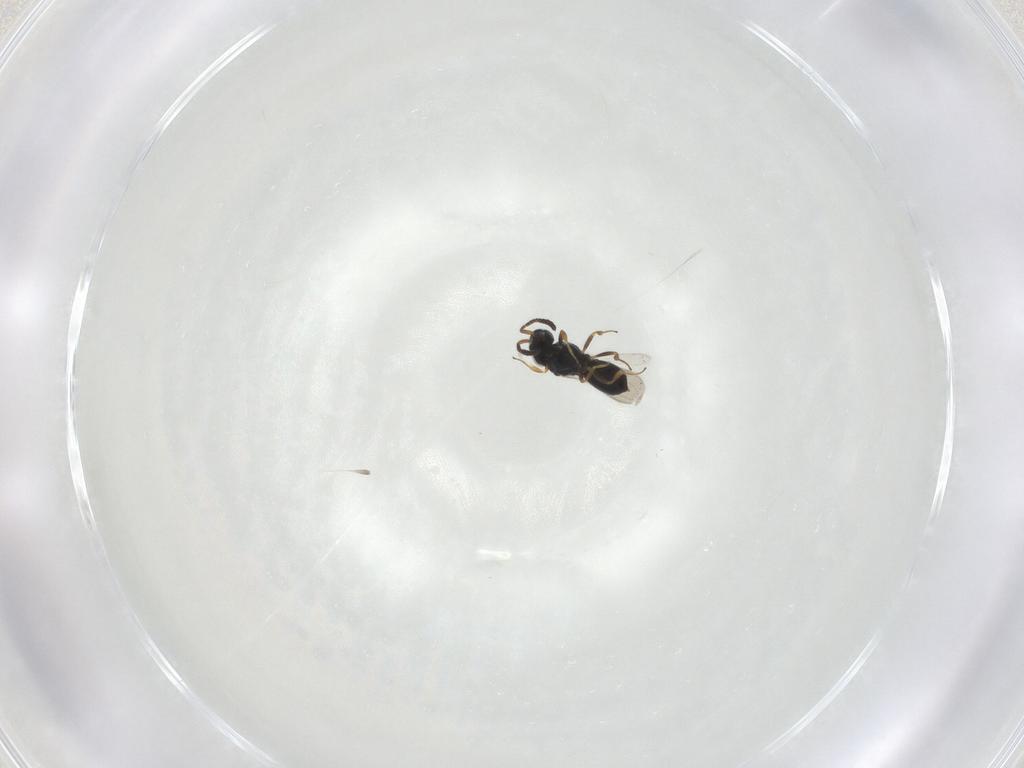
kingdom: Animalia
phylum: Arthropoda
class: Insecta
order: Hymenoptera
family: Scelionidae
